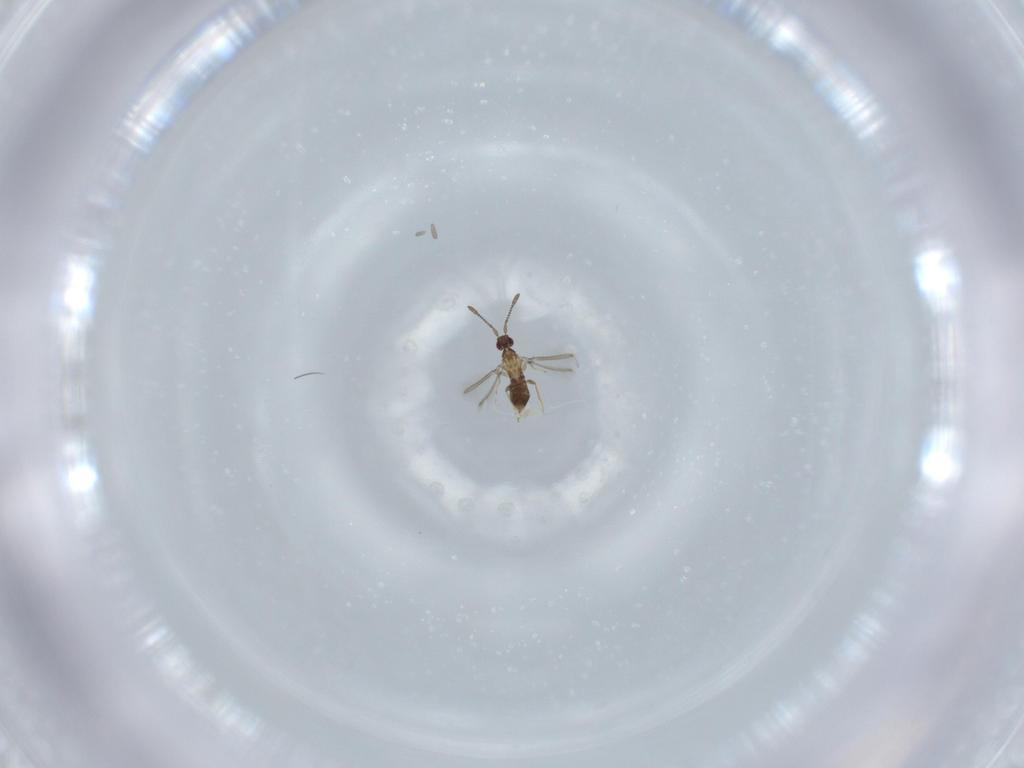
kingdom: Animalia
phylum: Arthropoda
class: Insecta
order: Hymenoptera
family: Mymaridae
